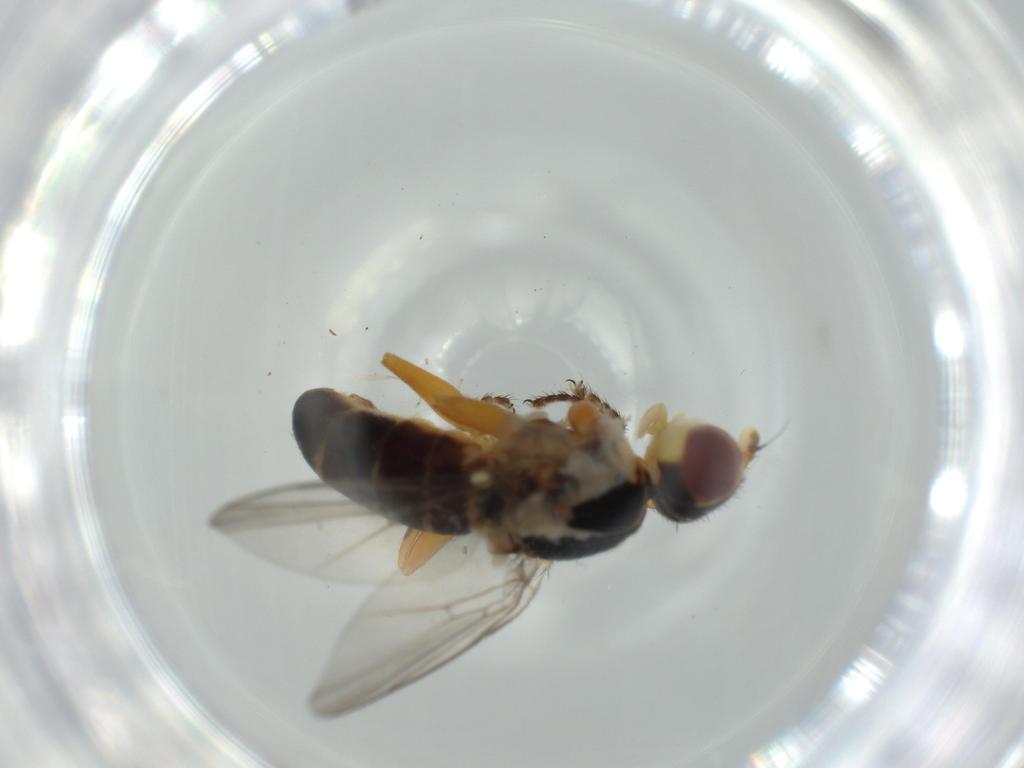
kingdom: Animalia
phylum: Arthropoda
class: Insecta
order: Diptera
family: Chloropidae
